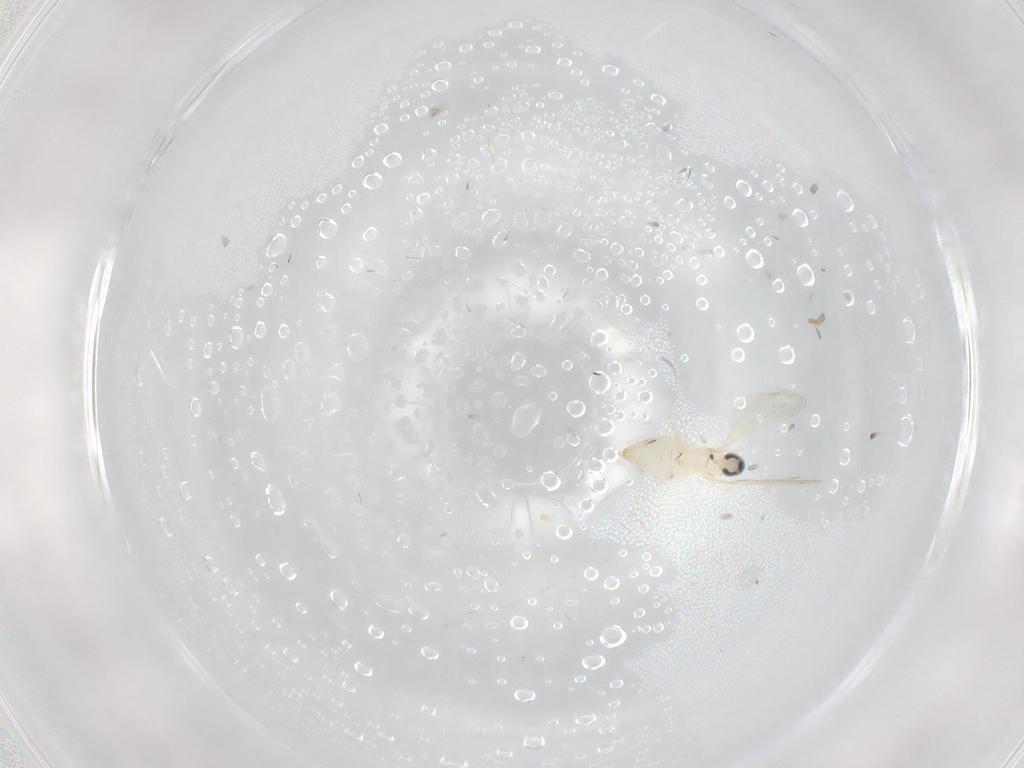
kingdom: Animalia
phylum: Arthropoda
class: Insecta
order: Diptera
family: Cecidomyiidae
